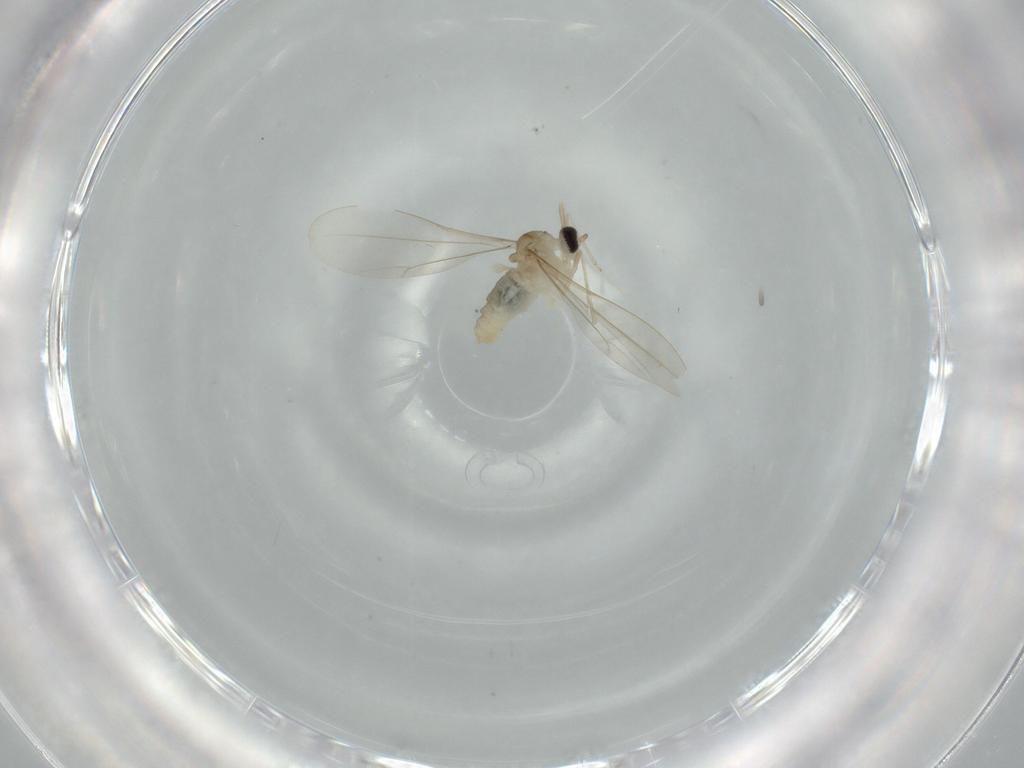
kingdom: Animalia
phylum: Arthropoda
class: Insecta
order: Diptera
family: Cecidomyiidae
